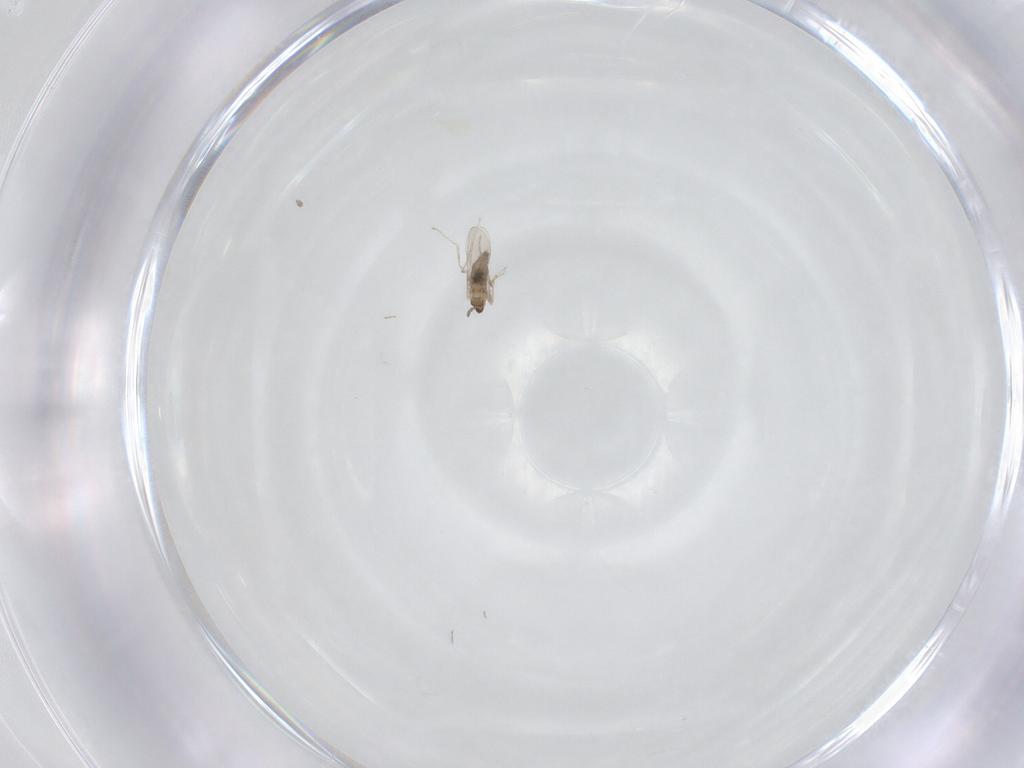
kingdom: Animalia
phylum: Arthropoda
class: Insecta
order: Diptera
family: Cecidomyiidae
